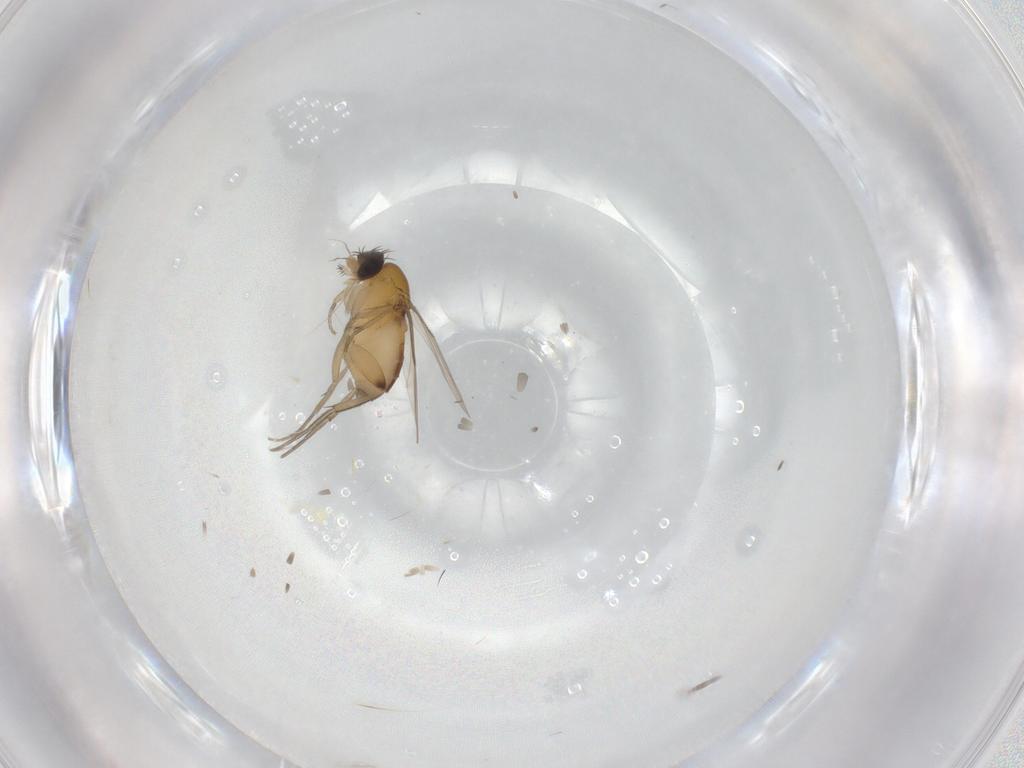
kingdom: Animalia
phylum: Arthropoda
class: Insecta
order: Diptera
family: Phoridae
